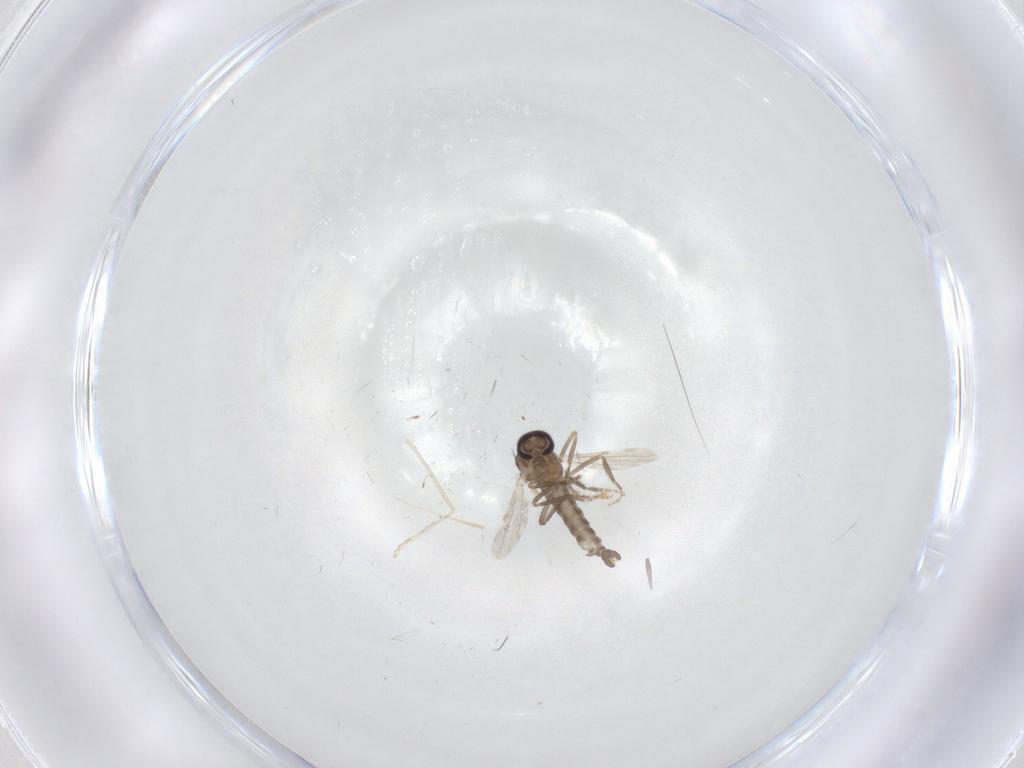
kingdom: Animalia
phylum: Arthropoda
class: Insecta
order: Diptera
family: Ceratopogonidae
